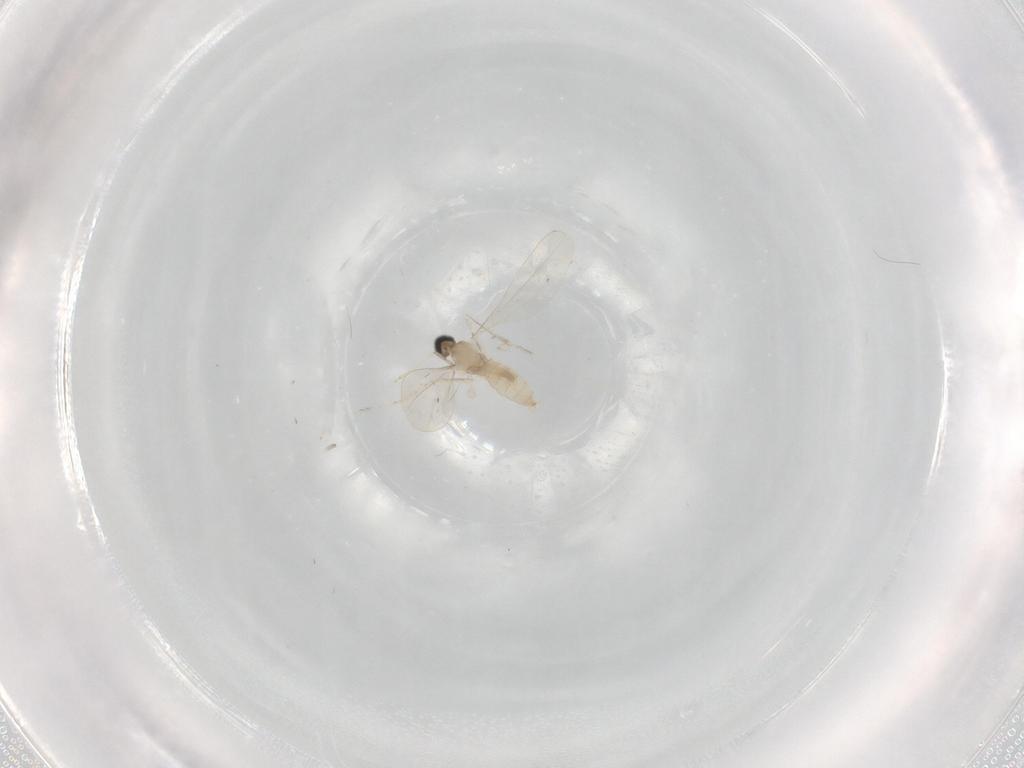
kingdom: Animalia
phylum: Arthropoda
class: Insecta
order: Diptera
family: Cecidomyiidae
